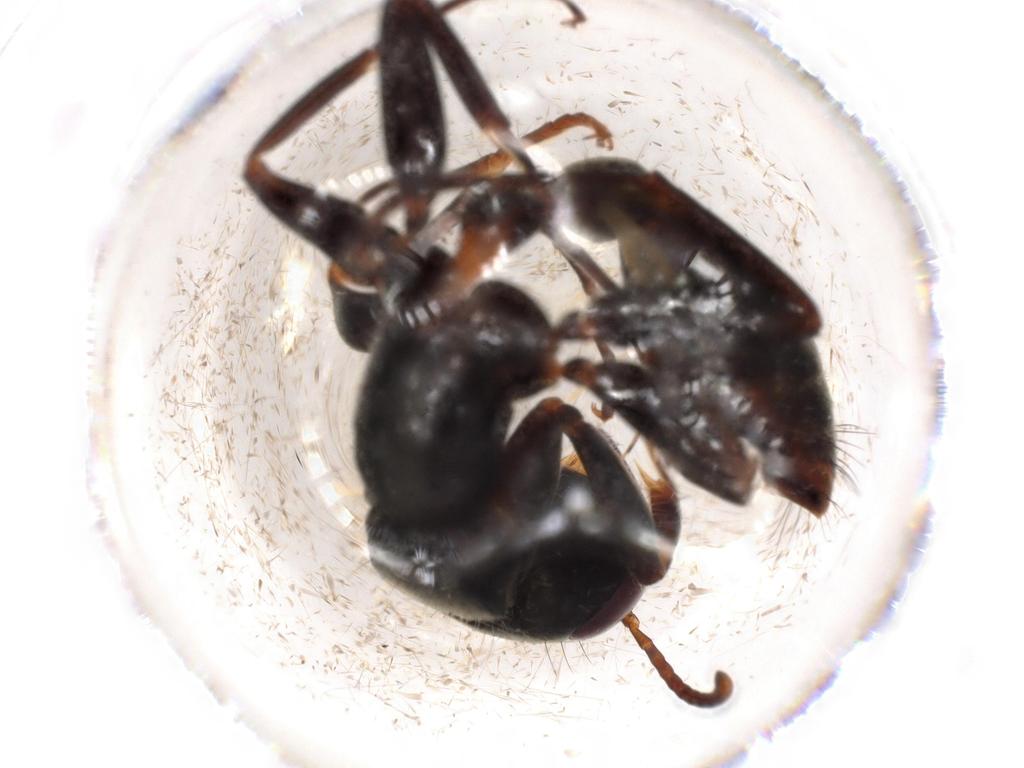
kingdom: Animalia
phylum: Arthropoda
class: Insecta
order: Hymenoptera
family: Formicidae
